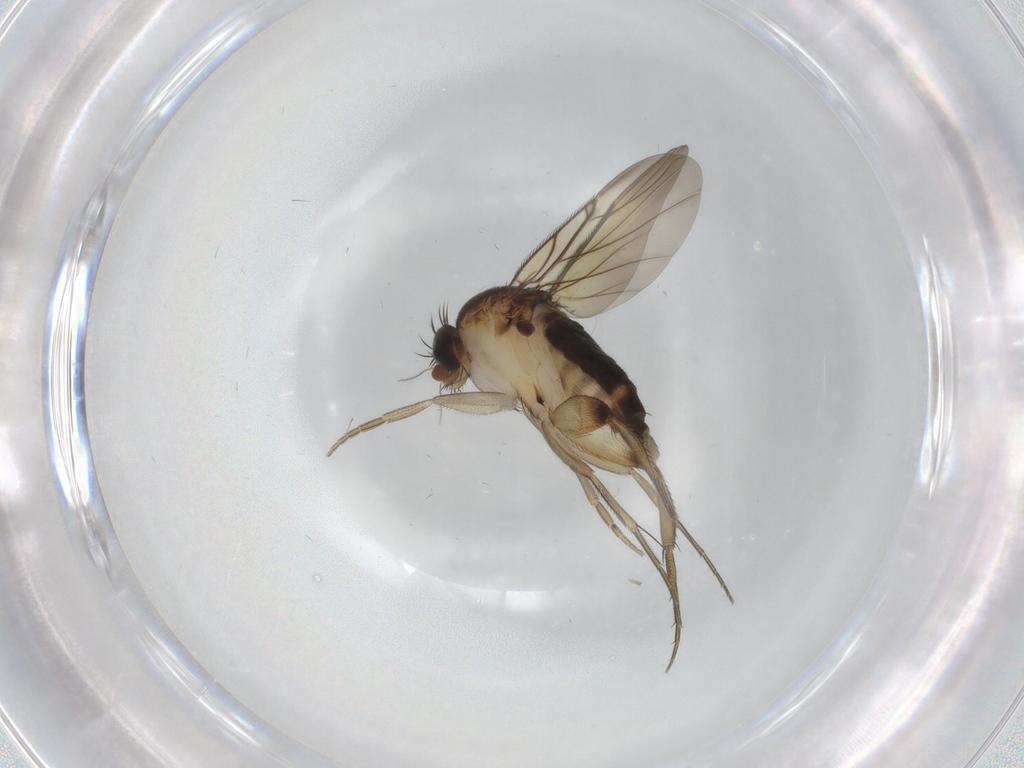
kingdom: Animalia
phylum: Arthropoda
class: Insecta
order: Diptera
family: Phoridae
